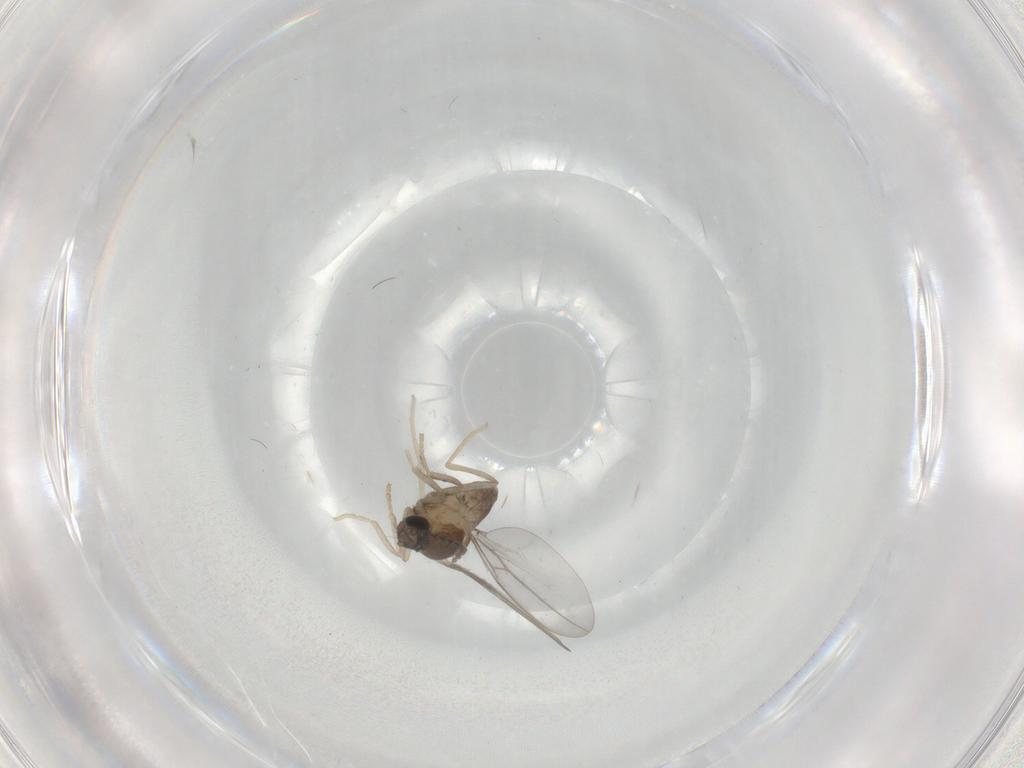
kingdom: Animalia
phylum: Arthropoda
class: Insecta
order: Diptera
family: Cecidomyiidae
